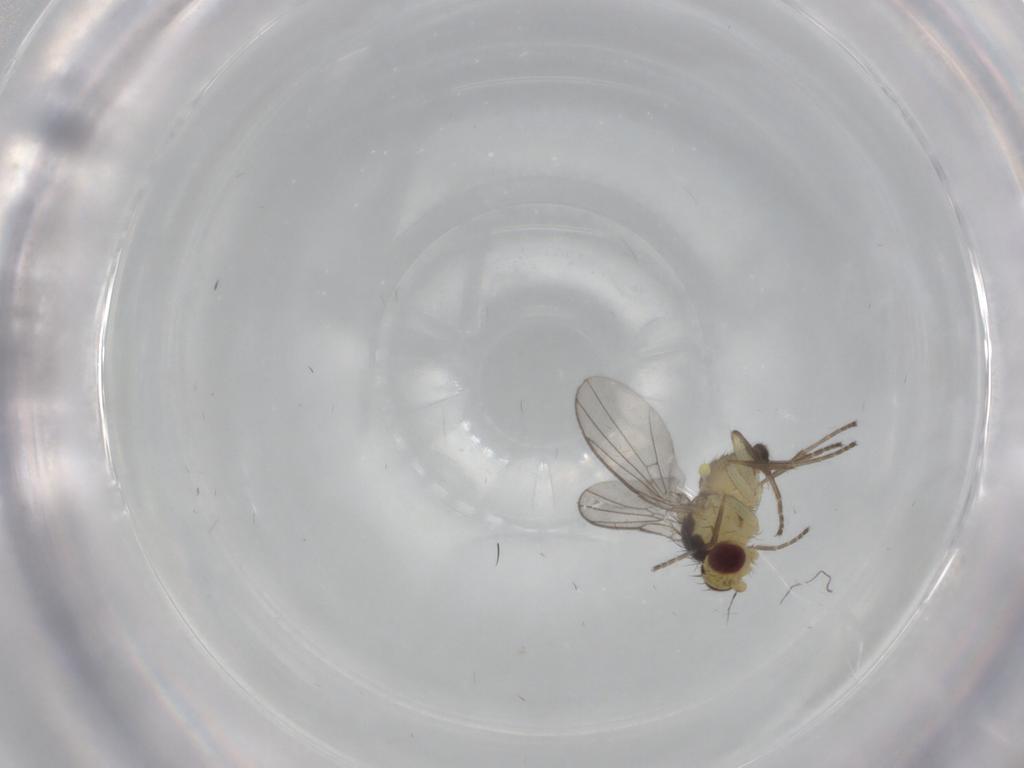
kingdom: Animalia
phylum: Arthropoda
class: Insecta
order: Diptera
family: Agromyzidae
